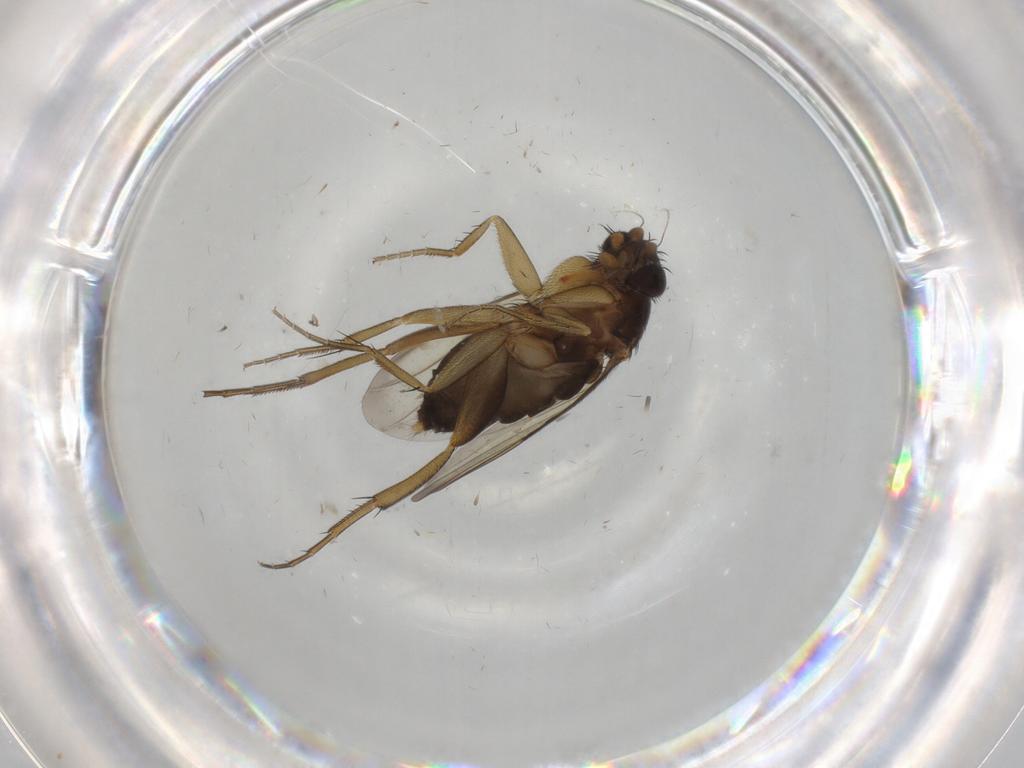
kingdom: Animalia
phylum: Arthropoda
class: Insecta
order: Diptera
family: Phoridae
